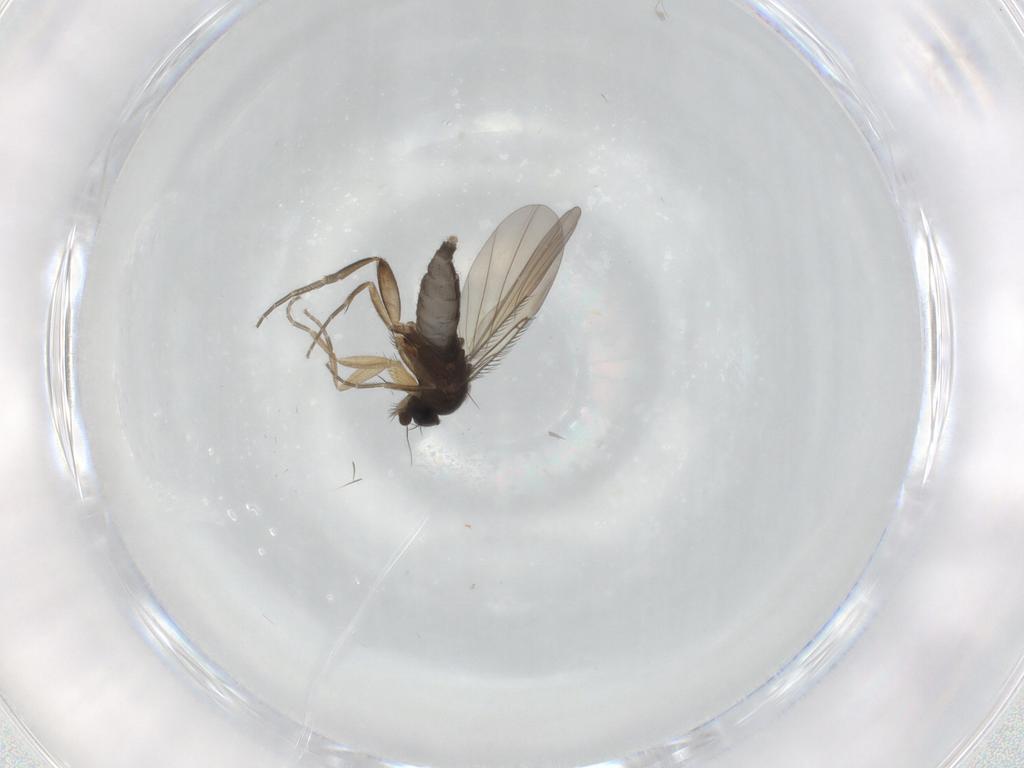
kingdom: Animalia
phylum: Arthropoda
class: Insecta
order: Diptera
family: Phoridae
